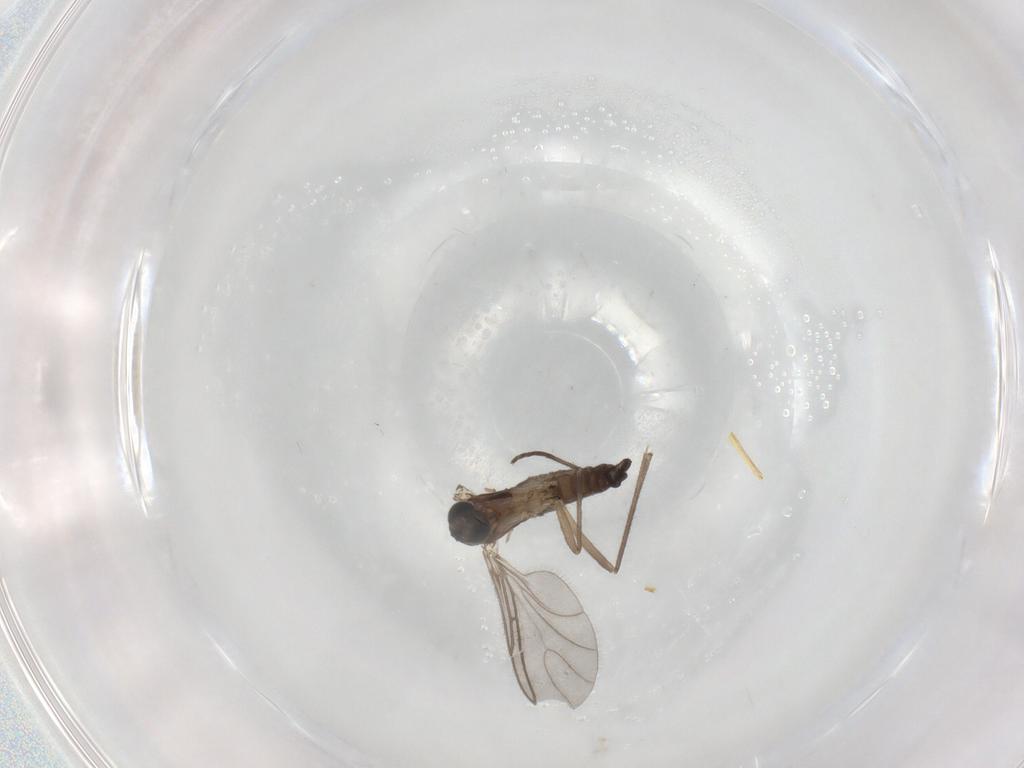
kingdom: Animalia
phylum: Arthropoda
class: Insecta
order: Diptera
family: Sciaridae
